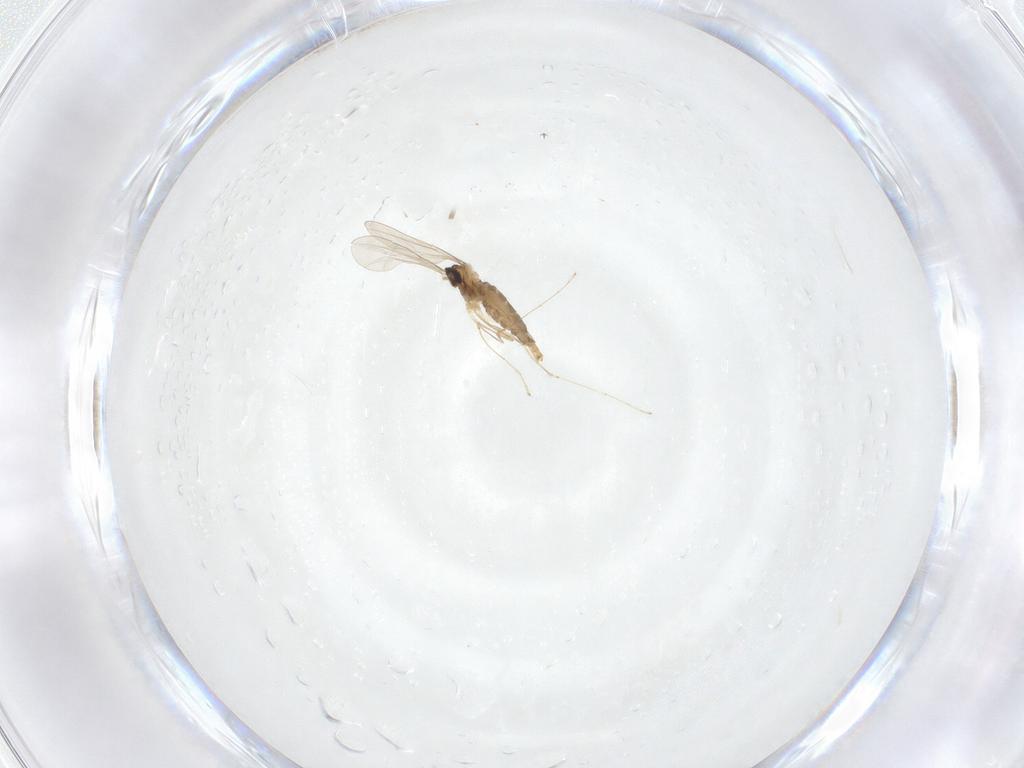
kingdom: Animalia
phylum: Arthropoda
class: Insecta
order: Diptera
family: Cecidomyiidae
